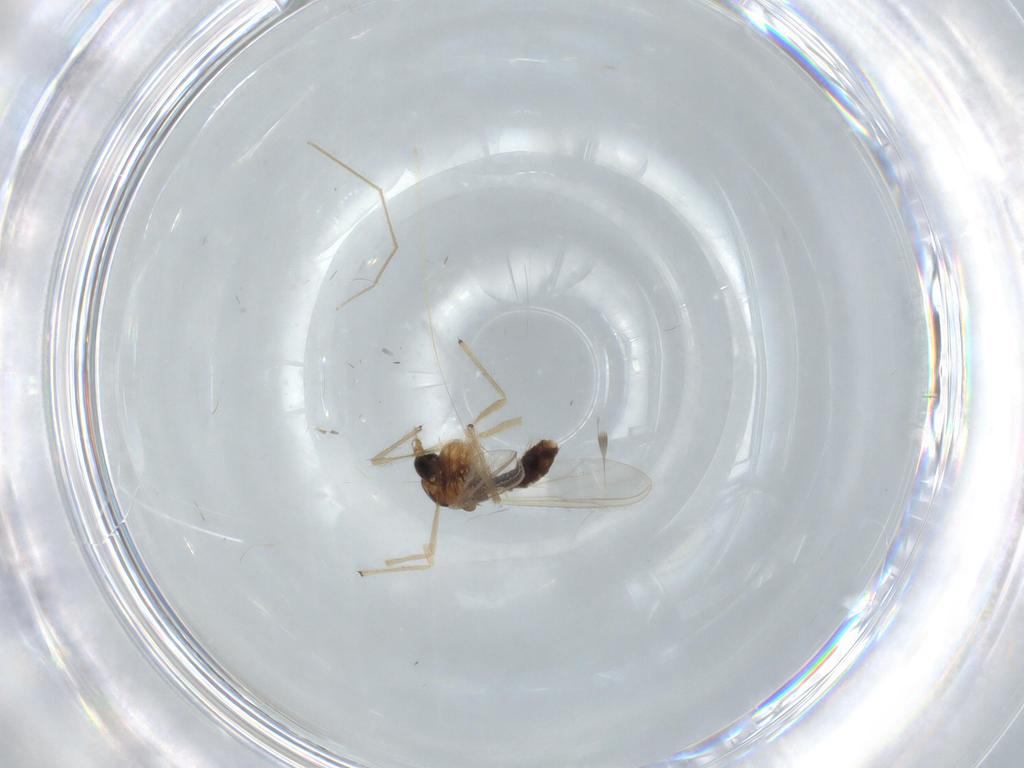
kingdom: Animalia
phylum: Arthropoda
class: Insecta
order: Diptera
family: Chironomidae
